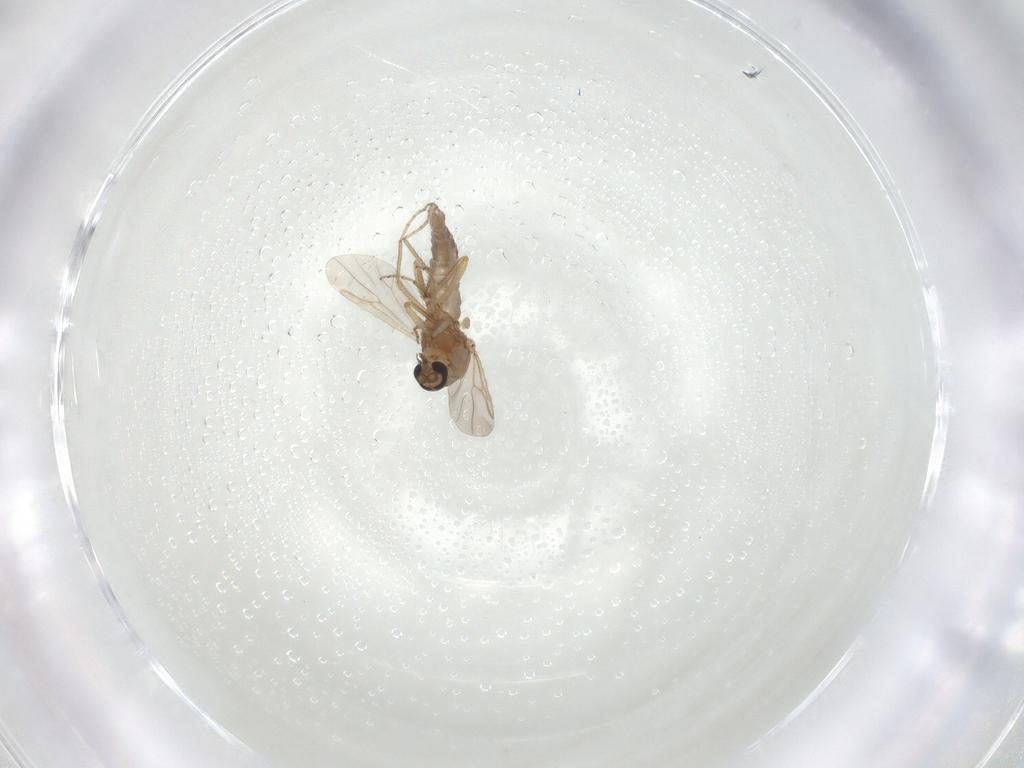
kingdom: Animalia
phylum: Arthropoda
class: Insecta
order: Diptera
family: Ceratopogonidae
